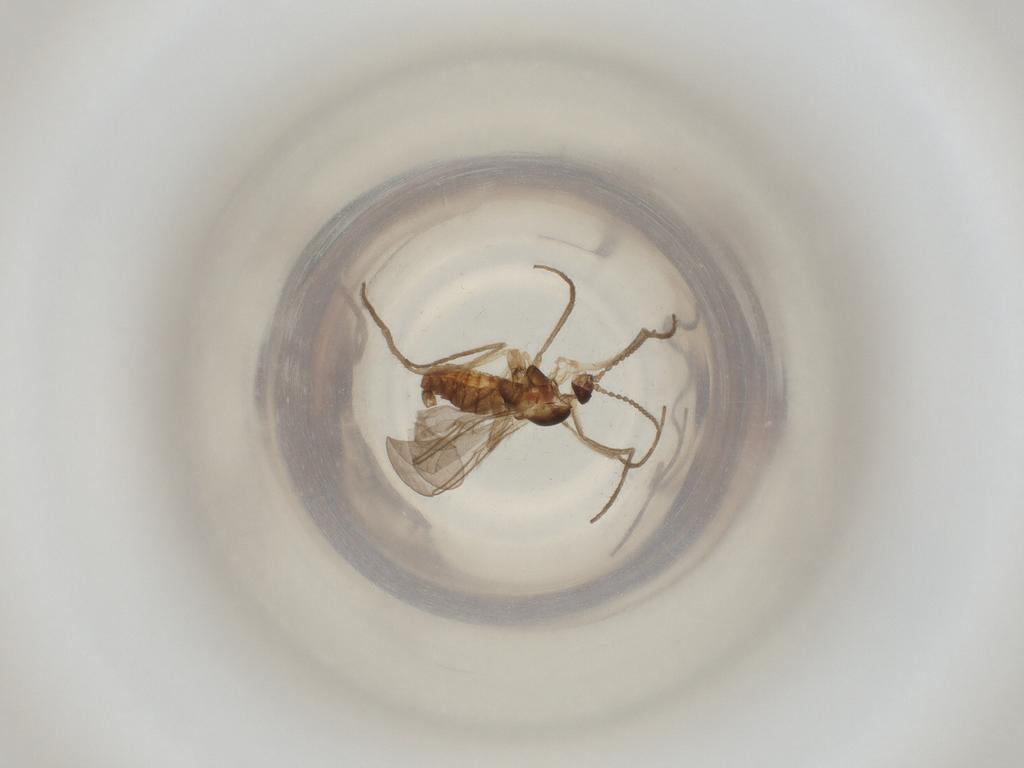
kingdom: Animalia
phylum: Arthropoda
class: Insecta
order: Diptera
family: Cecidomyiidae
